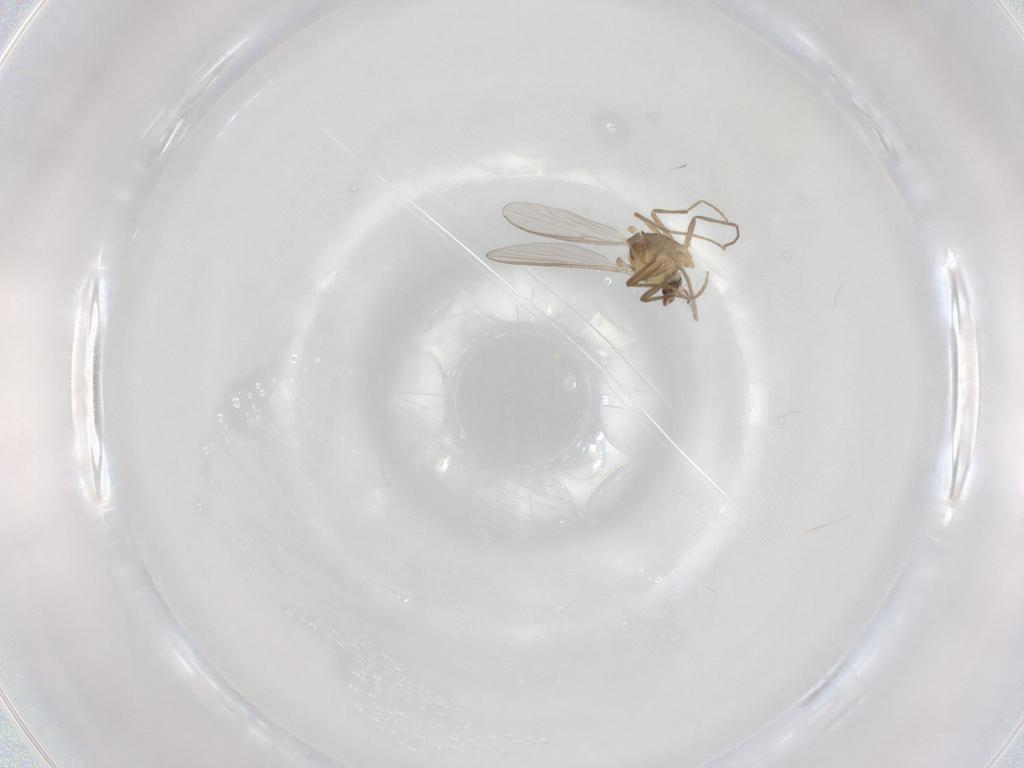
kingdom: Animalia
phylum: Arthropoda
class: Insecta
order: Diptera
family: Chironomidae
